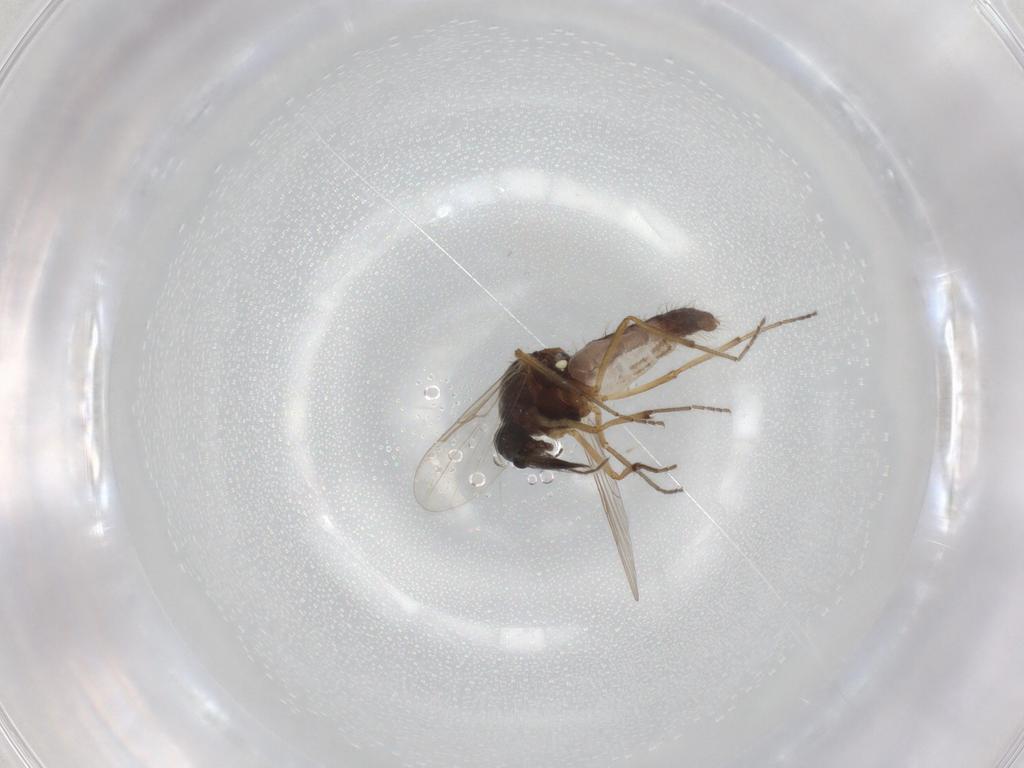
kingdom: Animalia
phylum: Arthropoda
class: Insecta
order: Diptera
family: Ceratopogonidae
